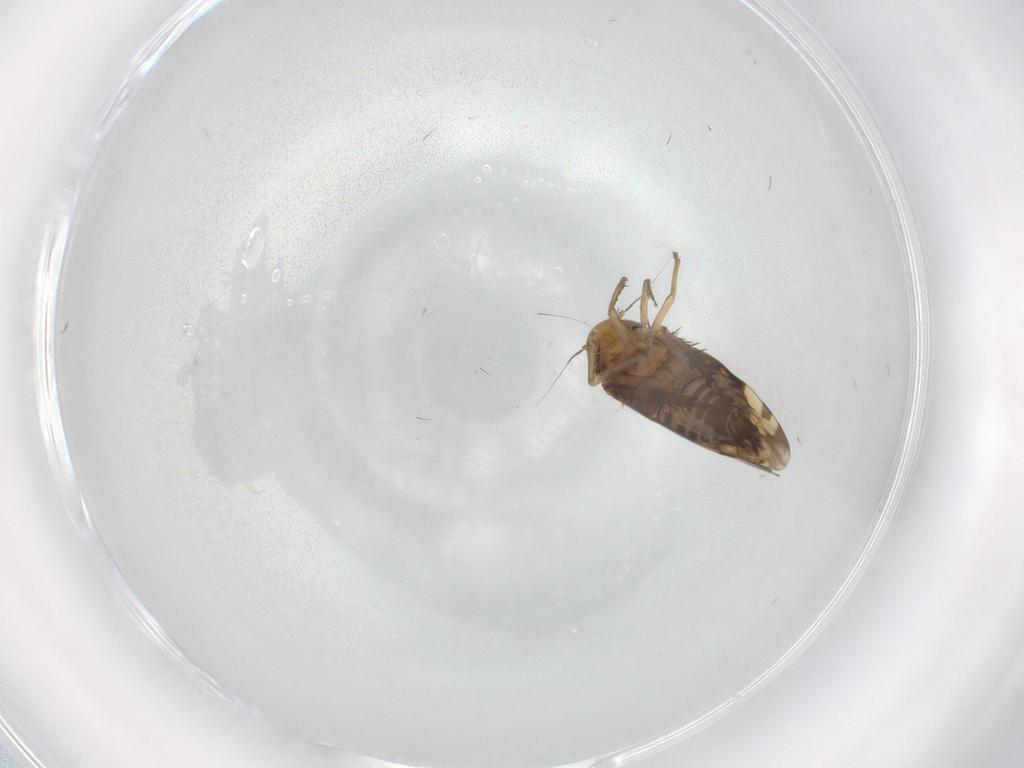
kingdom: Animalia
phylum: Arthropoda
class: Insecta
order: Hemiptera
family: Cicadellidae
